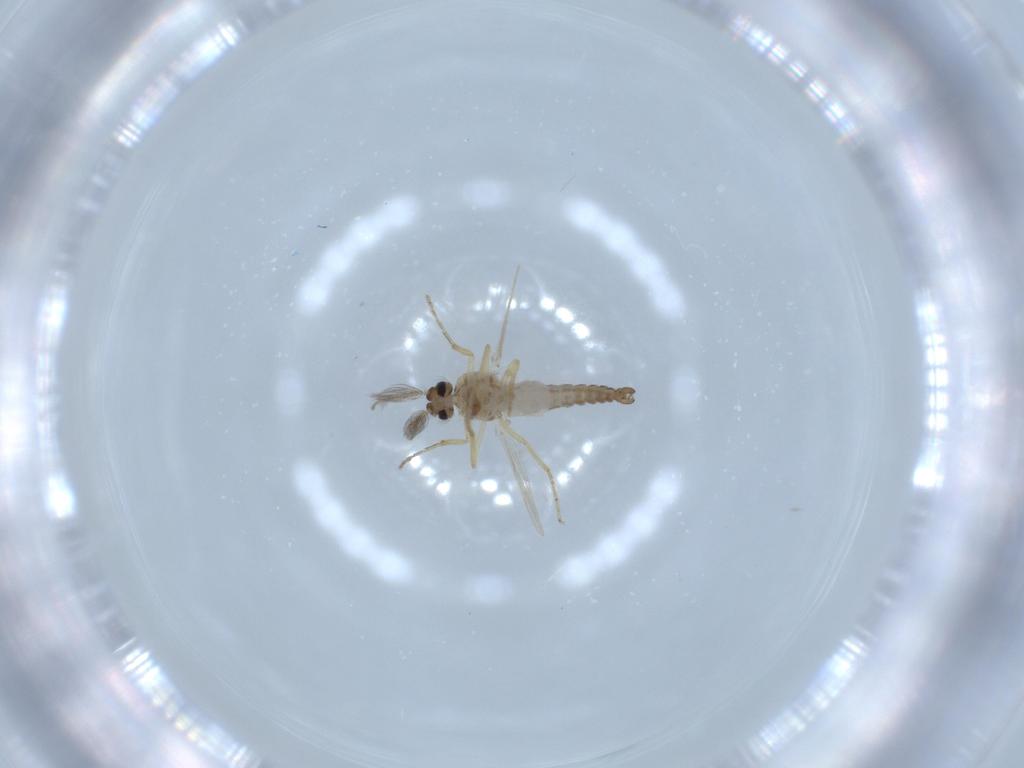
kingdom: Animalia
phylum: Arthropoda
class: Insecta
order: Diptera
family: Ceratopogonidae
